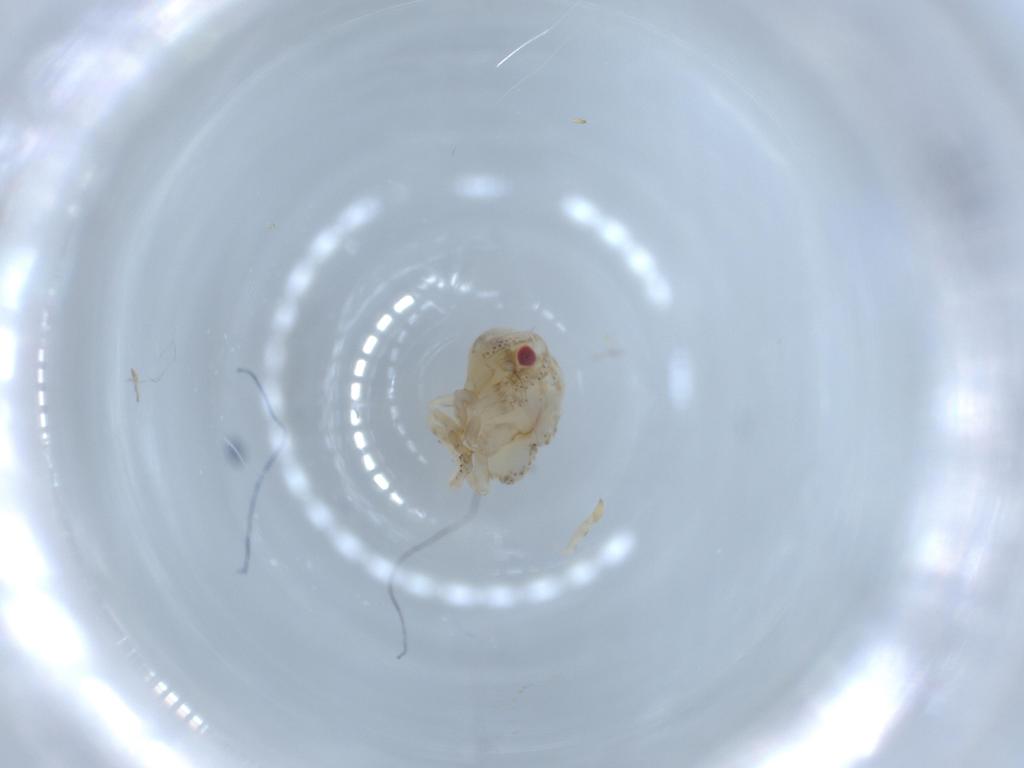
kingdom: Animalia
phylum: Arthropoda
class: Insecta
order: Hemiptera
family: Acanaloniidae
